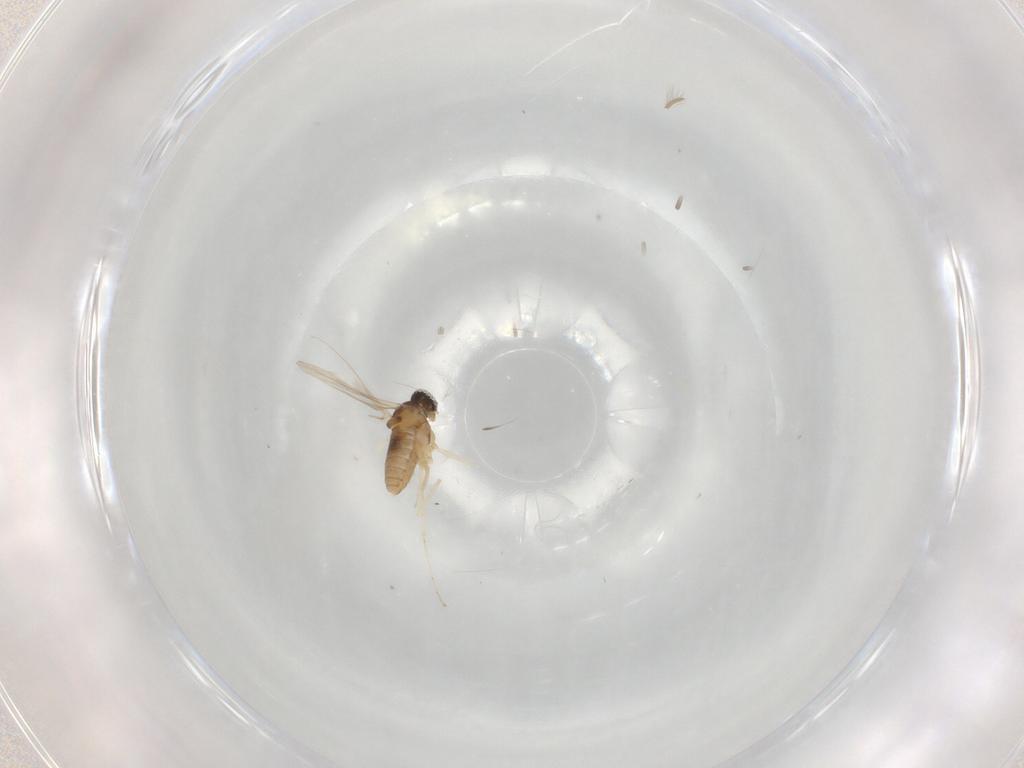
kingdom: Animalia
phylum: Arthropoda
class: Insecta
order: Diptera
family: Cecidomyiidae
